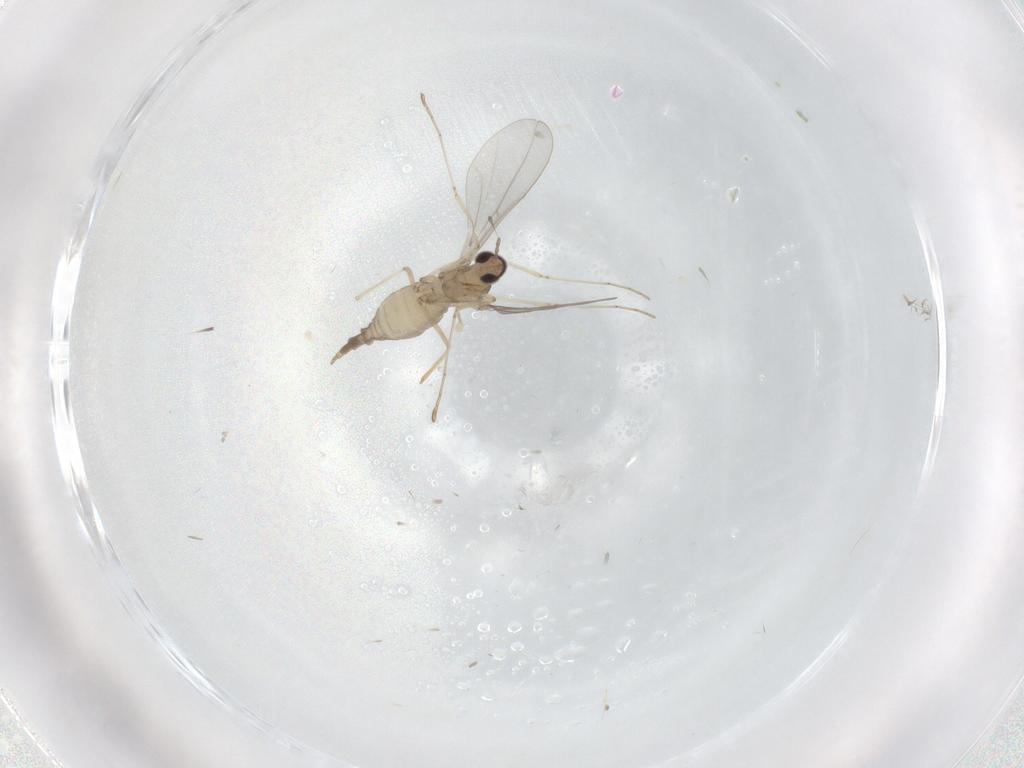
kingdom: Animalia
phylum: Arthropoda
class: Insecta
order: Diptera
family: Cecidomyiidae
